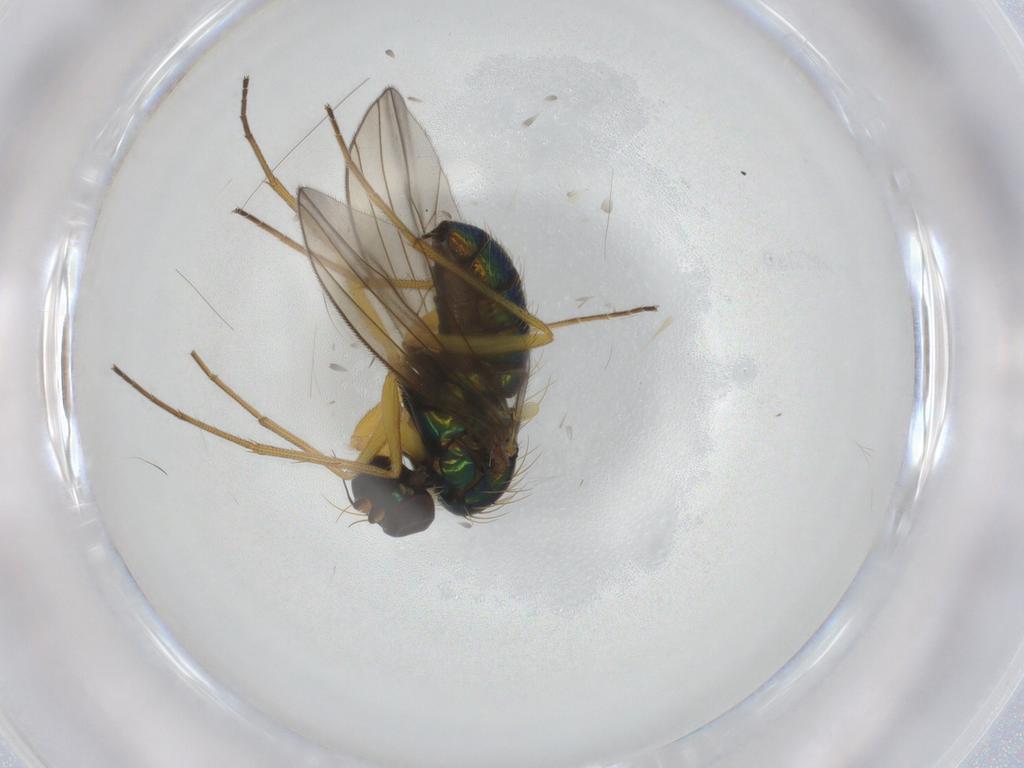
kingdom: Animalia
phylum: Arthropoda
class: Insecta
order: Diptera
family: Dolichopodidae
